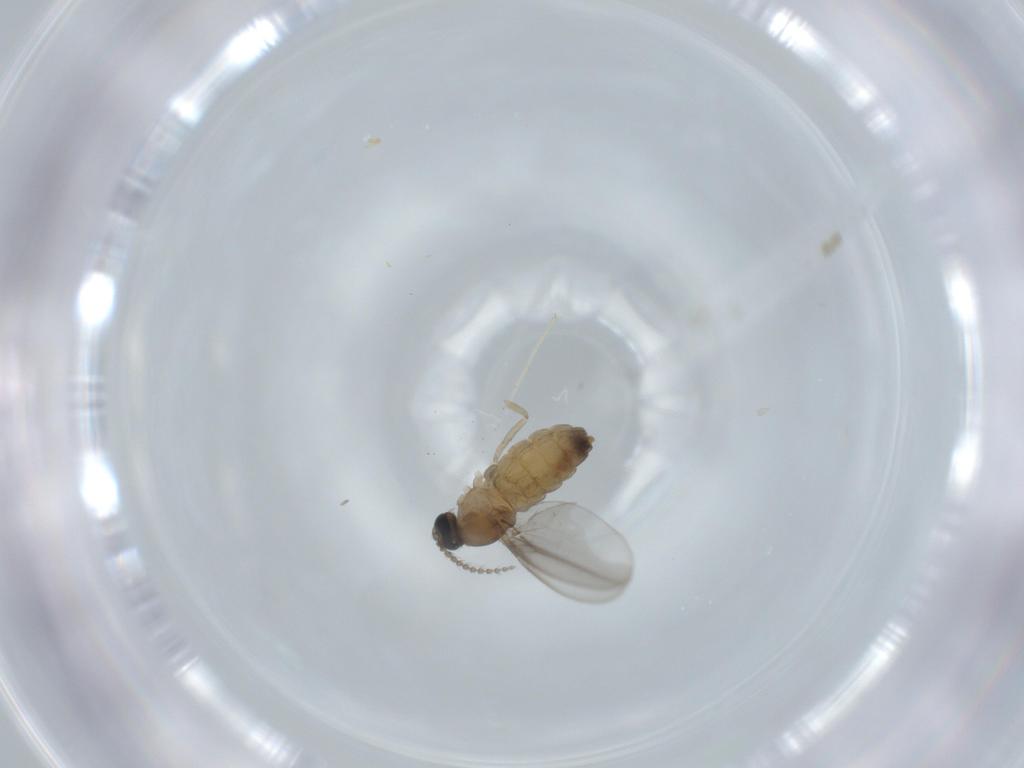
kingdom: Animalia
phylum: Arthropoda
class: Insecta
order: Diptera
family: Cecidomyiidae
